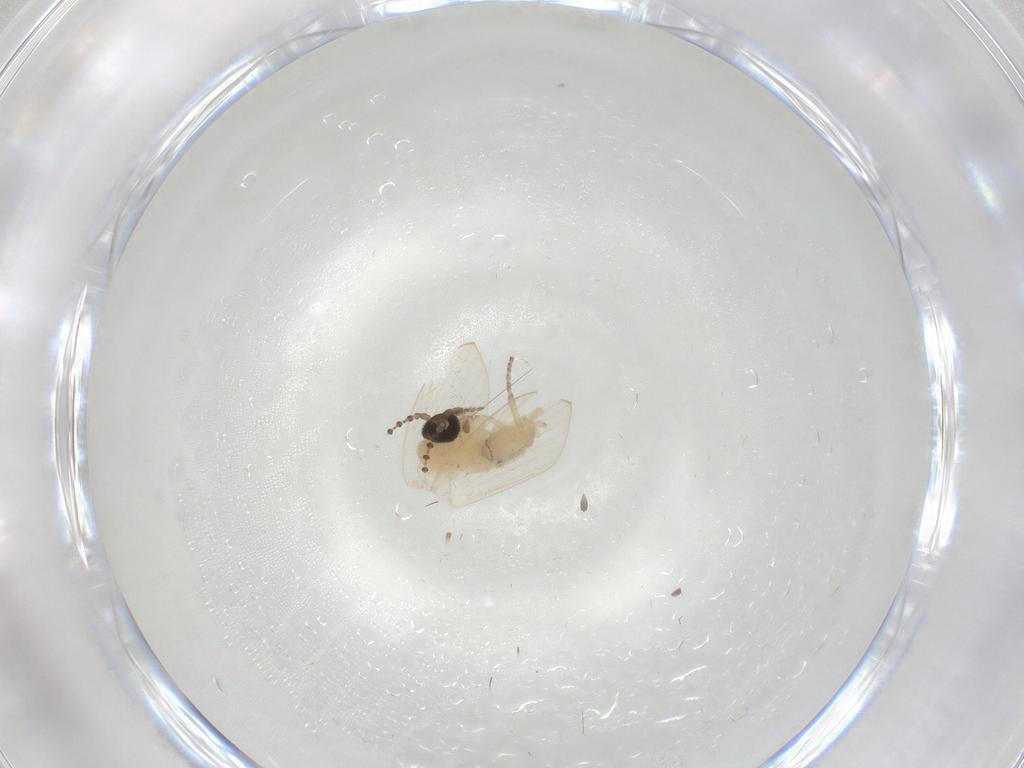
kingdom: Animalia
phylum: Arthropoda
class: Insecta
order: Diptera
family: Psychodidae
